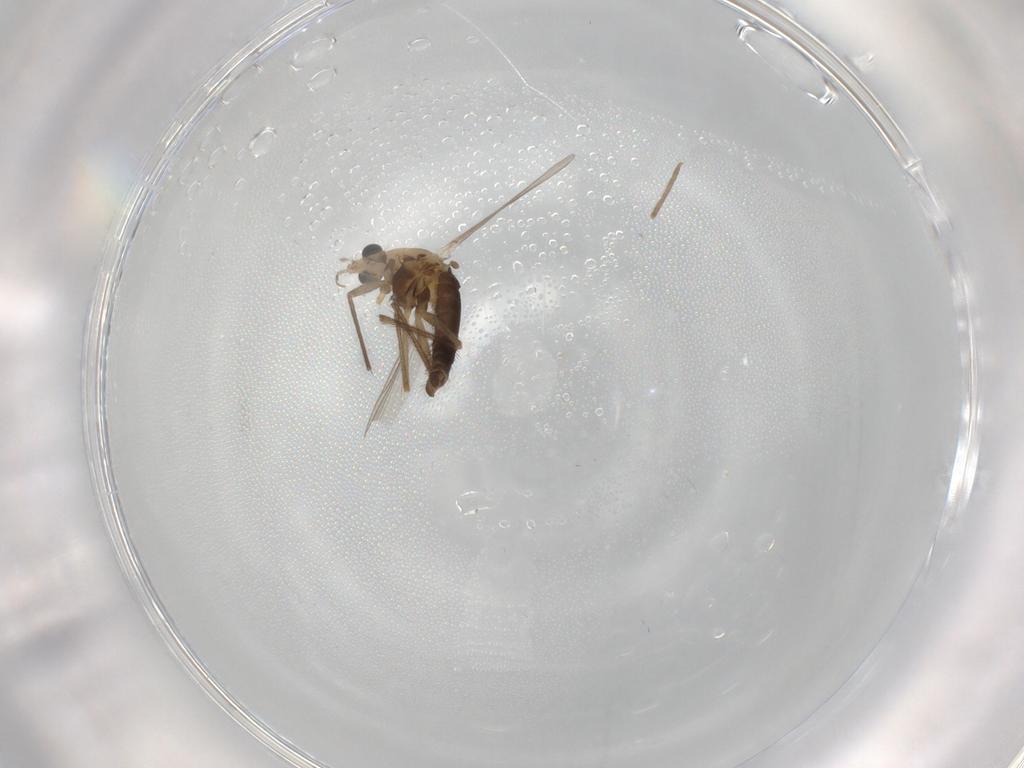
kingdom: Animalia
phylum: Arthropoda
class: Insecta
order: Diptera
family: Chironomidae
